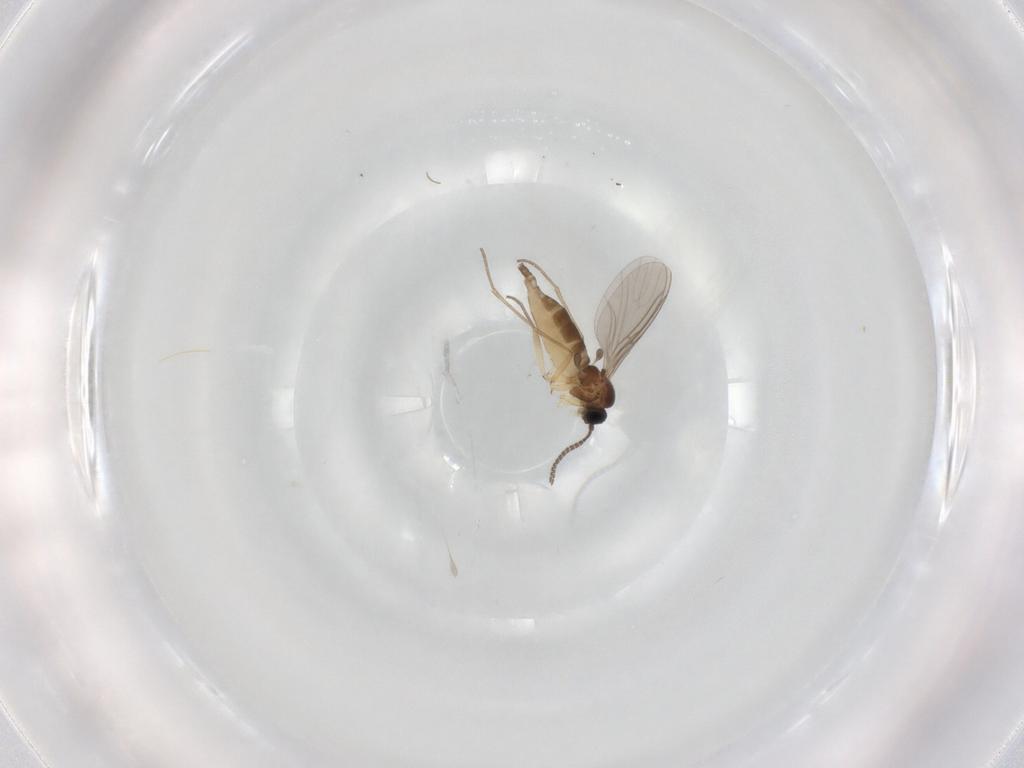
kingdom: Animalia
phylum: Arthropoda
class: Insecta
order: Diptera
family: Sciaridae
